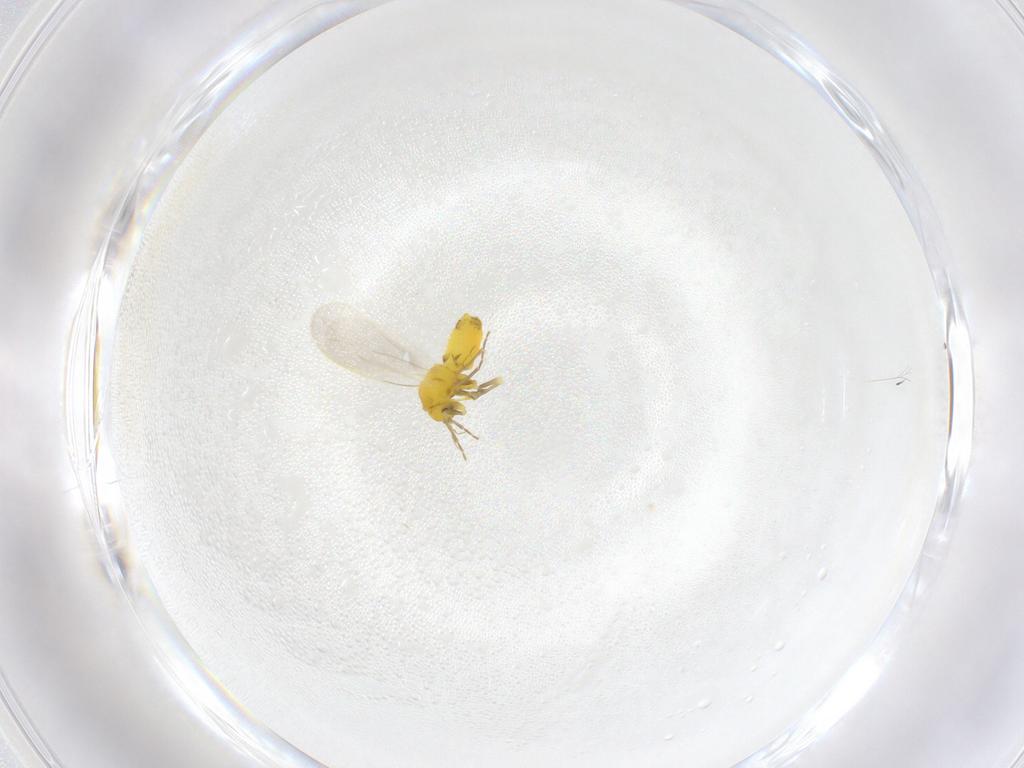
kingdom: Animalia
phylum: Arthropoda
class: Insecta
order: Hemiptera
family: Aleyrodidae
